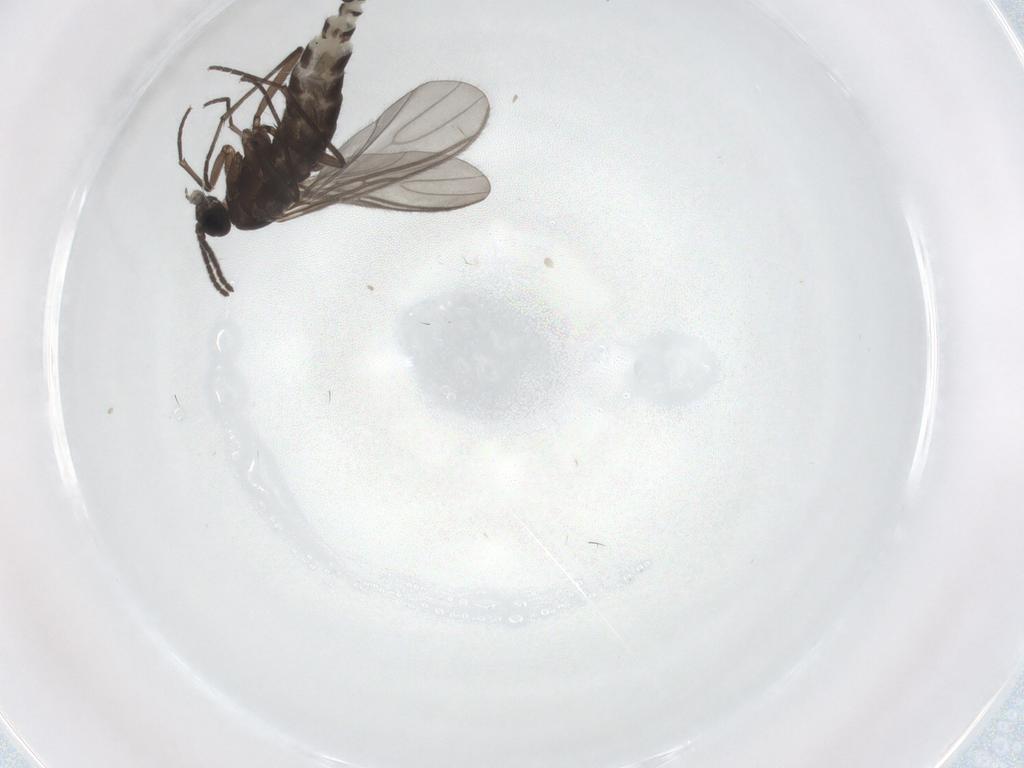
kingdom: Animalia
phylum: Arthropoda
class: Insecta
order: Diptera
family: Sciaridae
